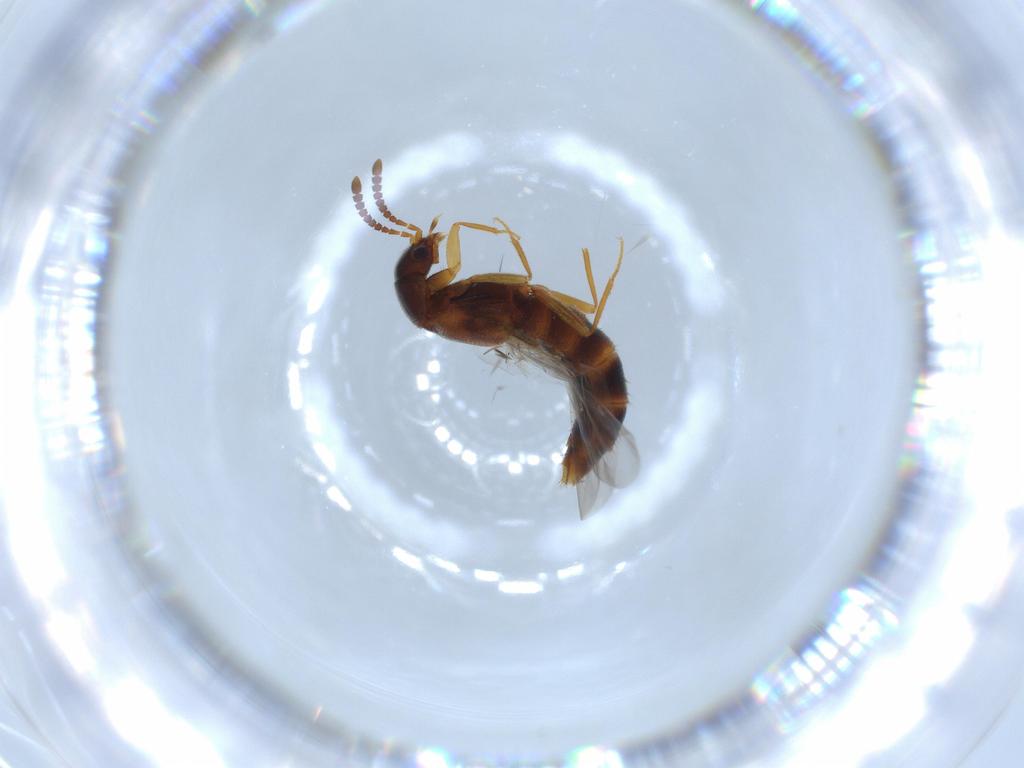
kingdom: Animalia
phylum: Arthropoda
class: Insecta
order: Coleoptera
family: Staphylinidae
